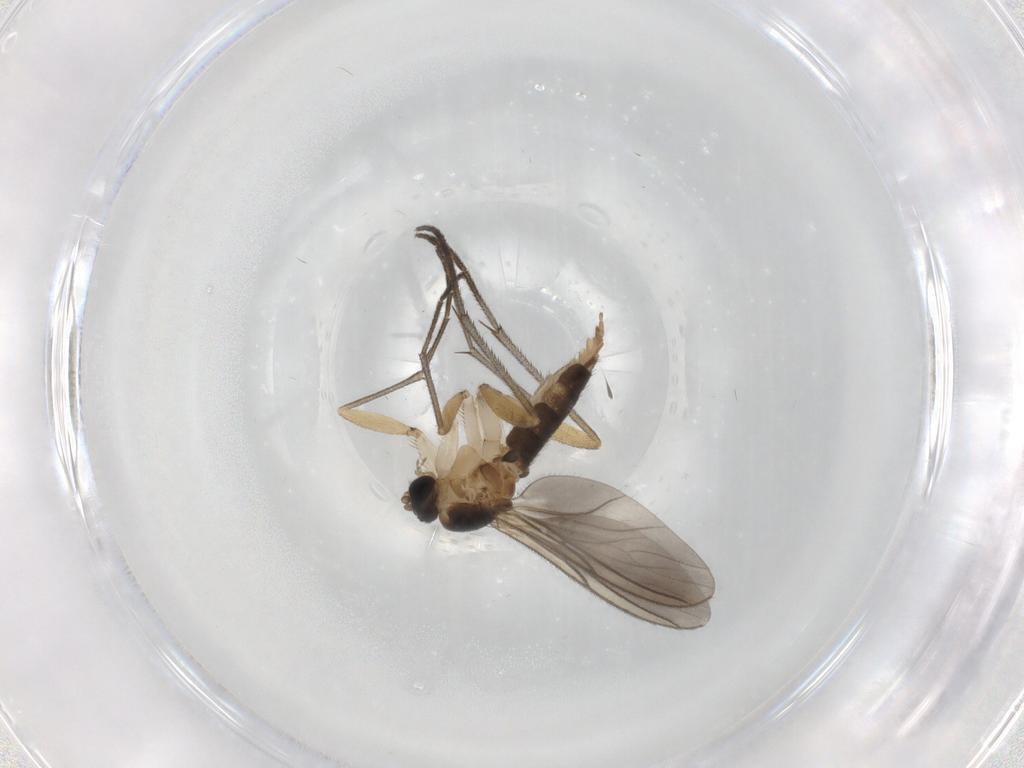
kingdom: Animalia
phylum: Arthropoda
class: Insecta
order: Diptera
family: Sciaridae
